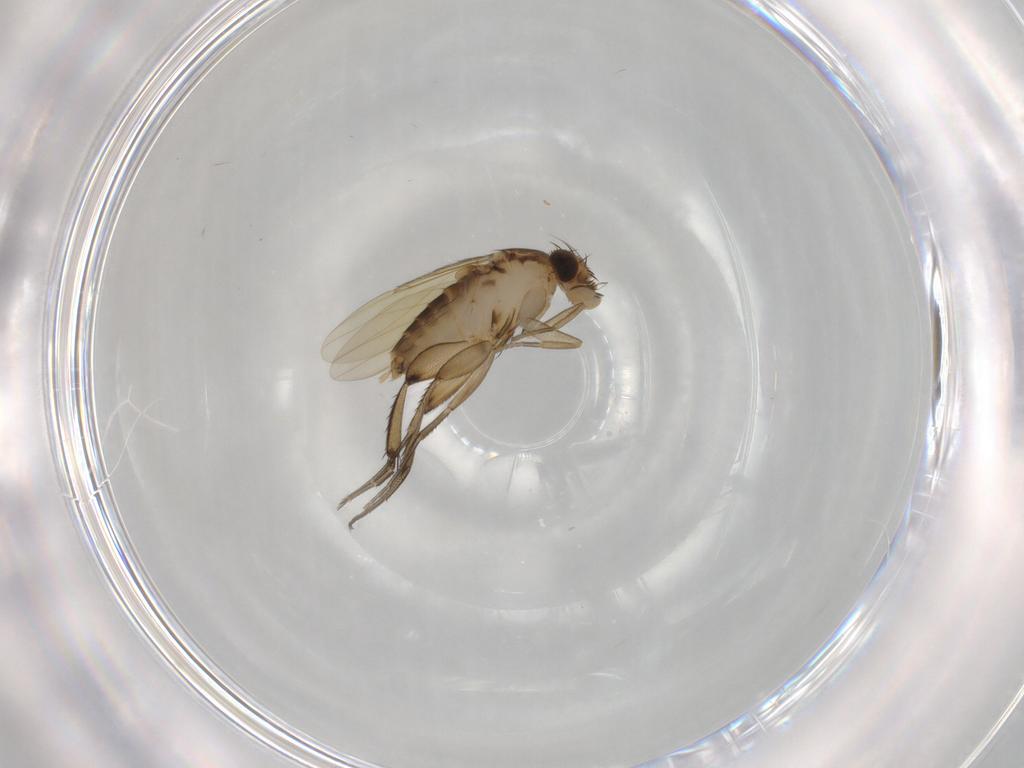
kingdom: Animalia
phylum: Arthropoda
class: Insecta
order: Diptera
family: Phoridae
